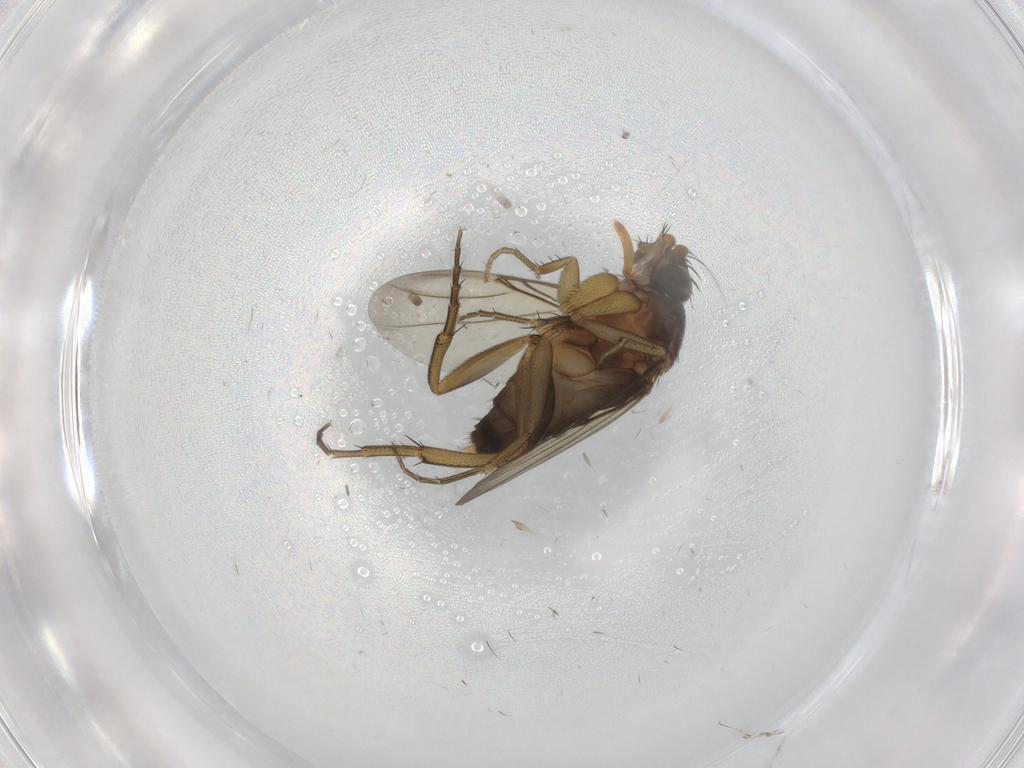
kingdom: Animalia
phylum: Arthropoda
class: Insecta
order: Diptera
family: Phoridae
